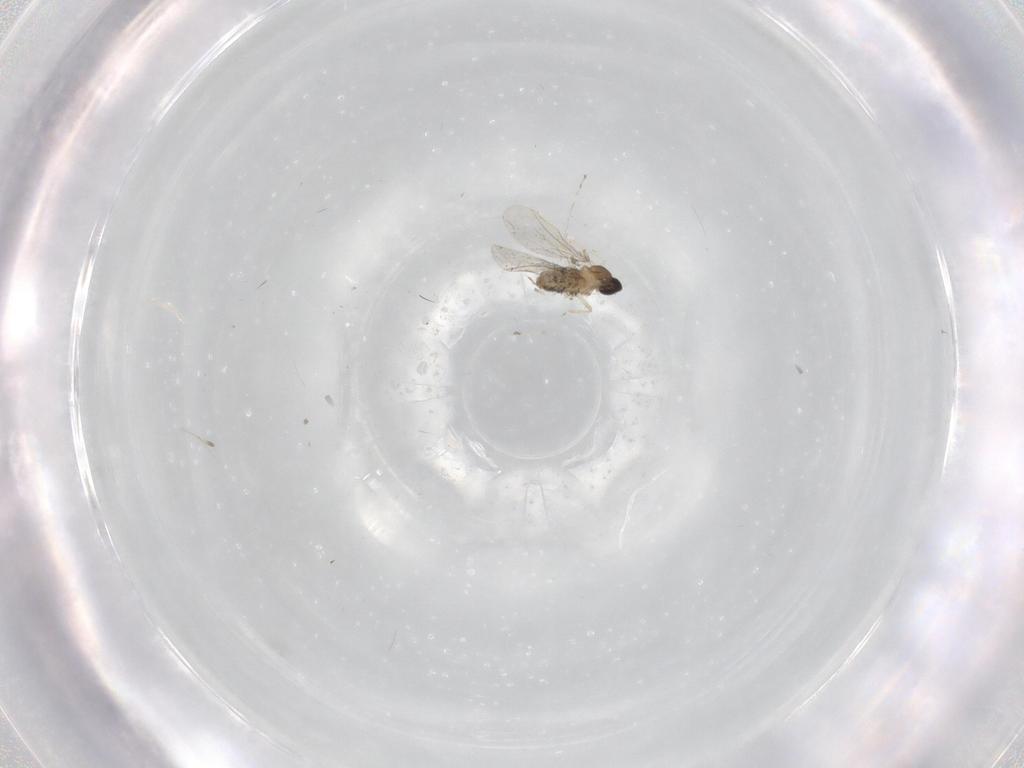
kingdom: Animalia
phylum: Arthropoda
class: Insecta
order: Diptera
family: Cecidomyiidae
